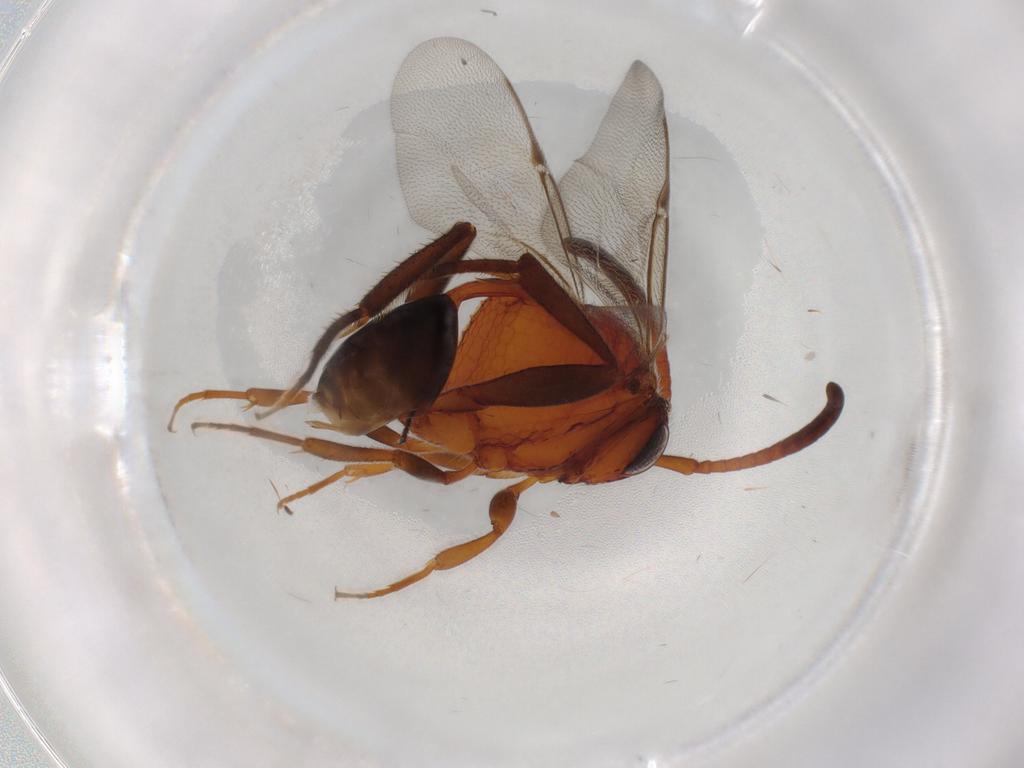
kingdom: Animalia
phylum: Arthropoda
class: Insecta
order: Hymenoptera
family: Evaniidae
